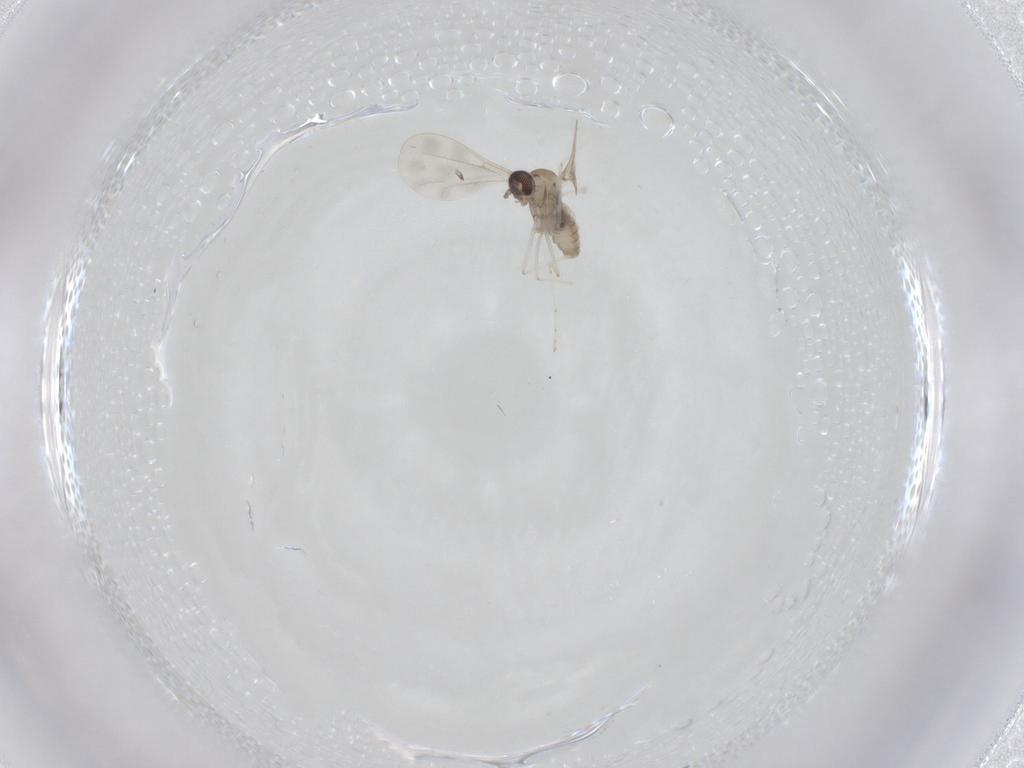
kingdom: Animalia
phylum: Arthropoda
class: Insecta
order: Diptera
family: Cecidomyiidae
